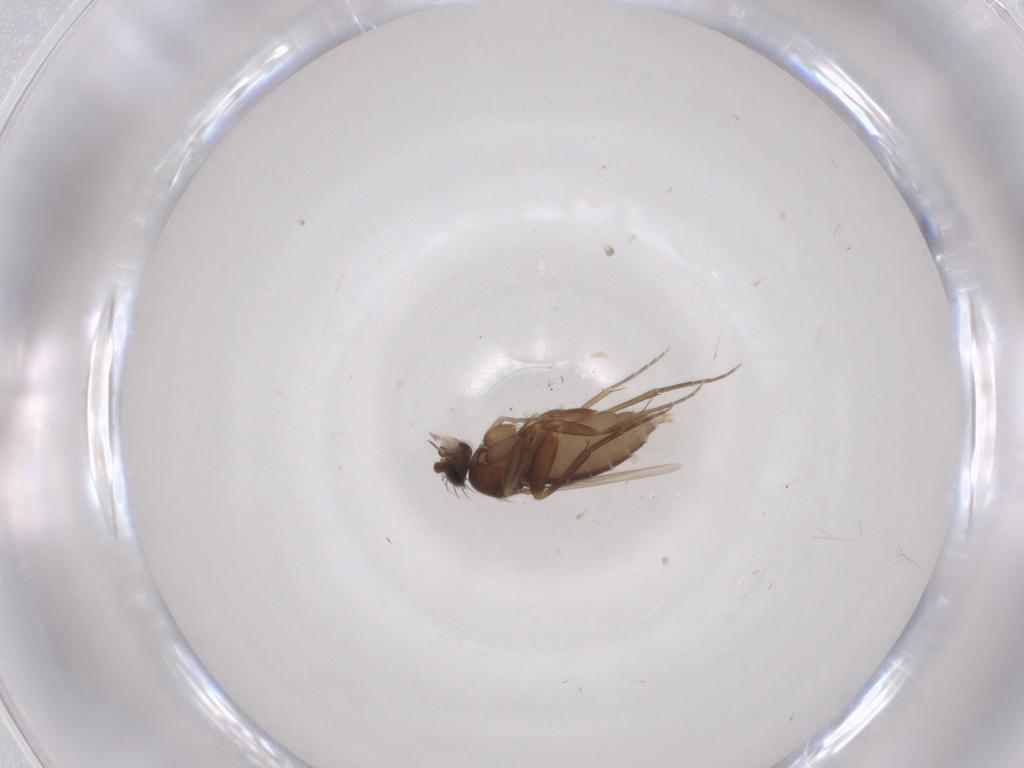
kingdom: Animalia
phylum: Arthropoda
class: Insecta
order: Diptera
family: Phoridae
